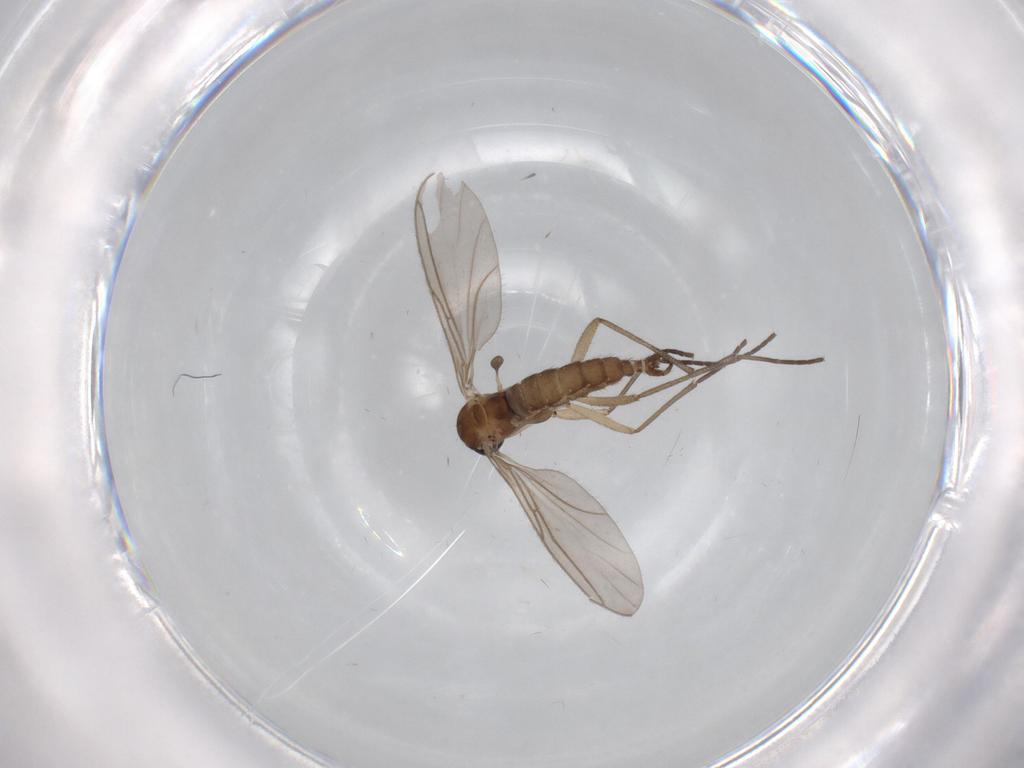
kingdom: Animalia
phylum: Arthropoda
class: Insecta
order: Diptera
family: Sciaridae
